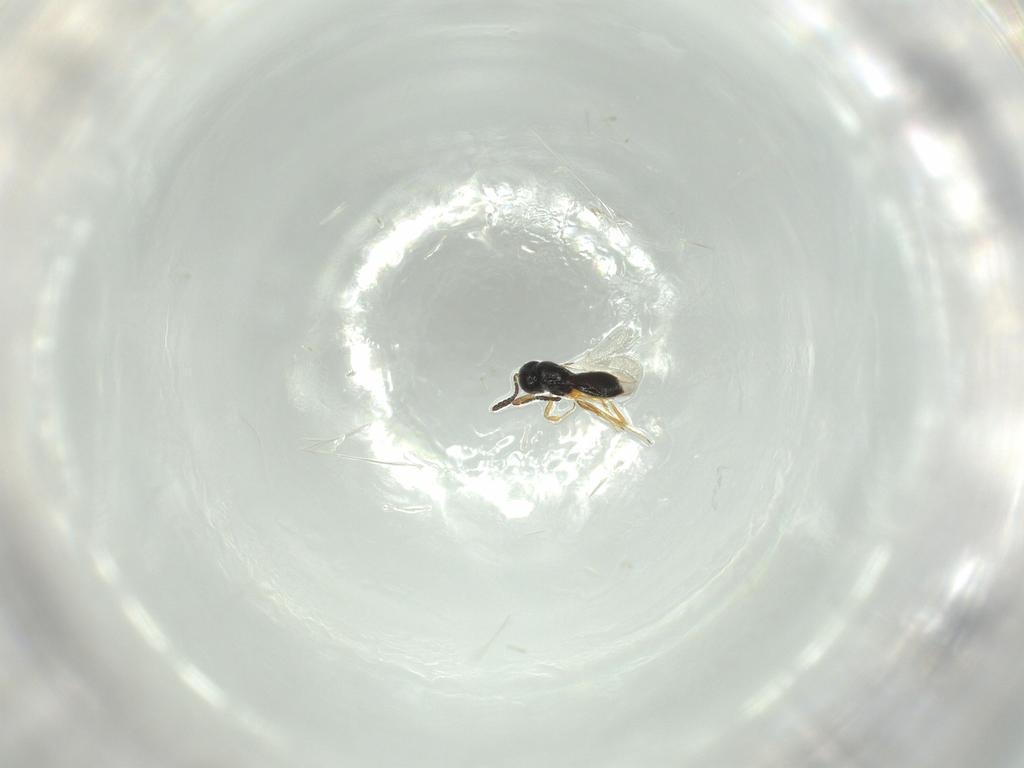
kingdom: Animalia
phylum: Arthropoda
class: Insecta
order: Hymenoptera
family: Scelionidae
